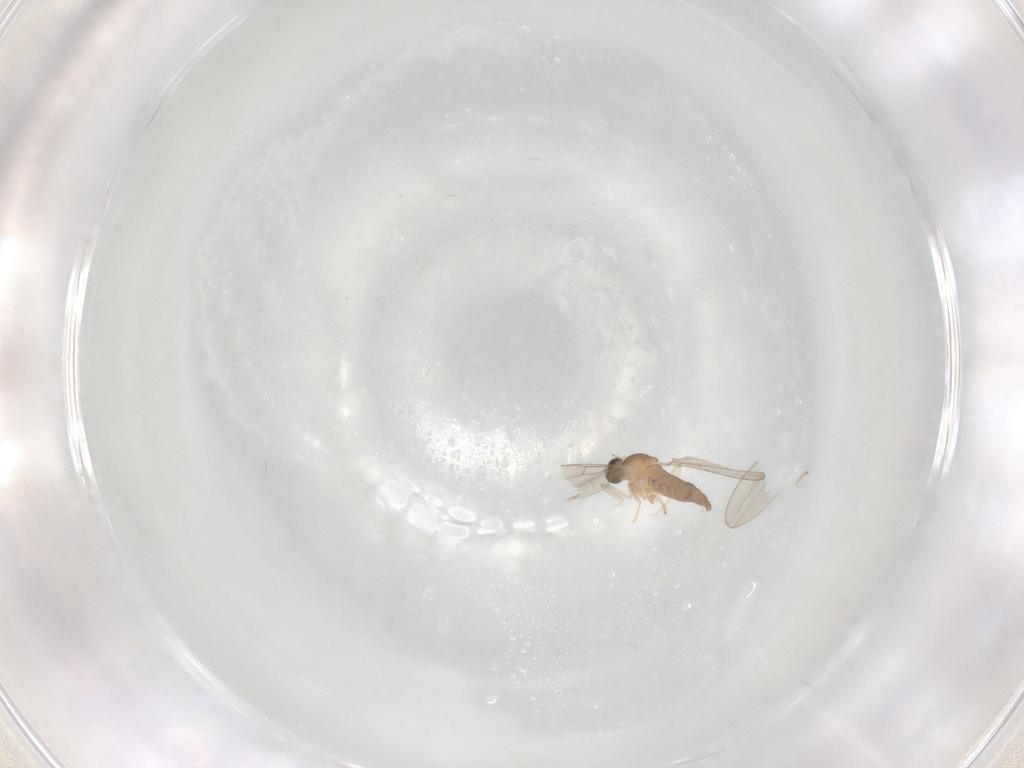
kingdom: Animalia
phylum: Arthropoda
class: Insecta
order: Diptera
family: Cecidomyiidae
